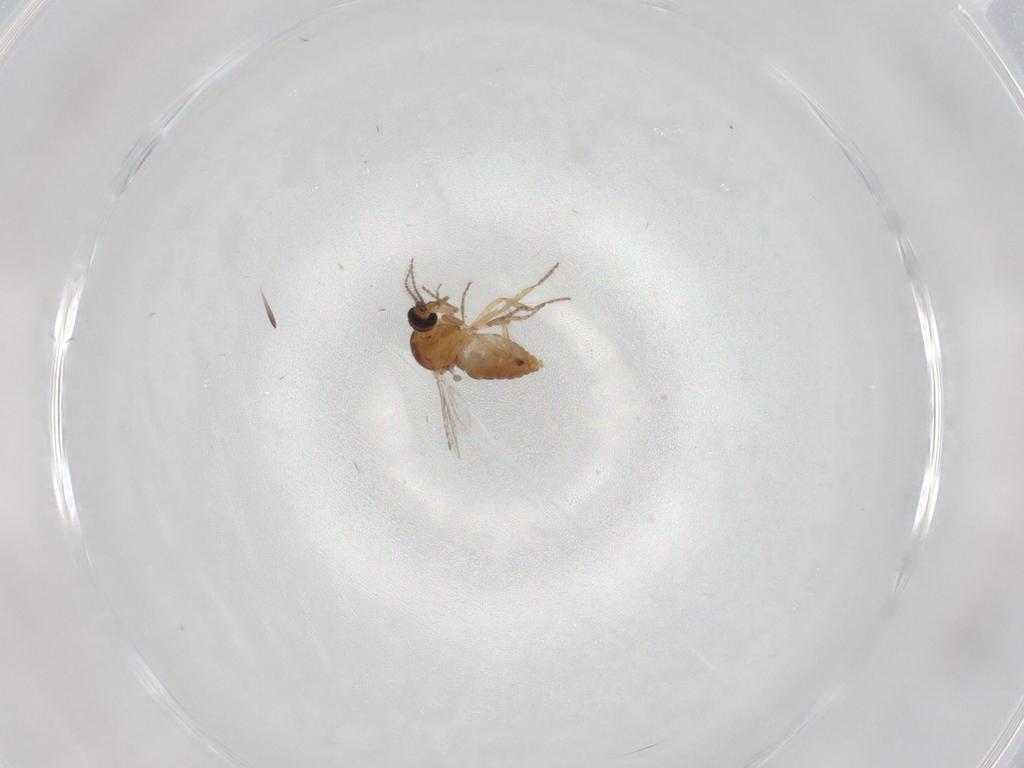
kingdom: Animalia
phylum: Arthropoda
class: Insecta
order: Diptera
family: Ceratopogonidae
